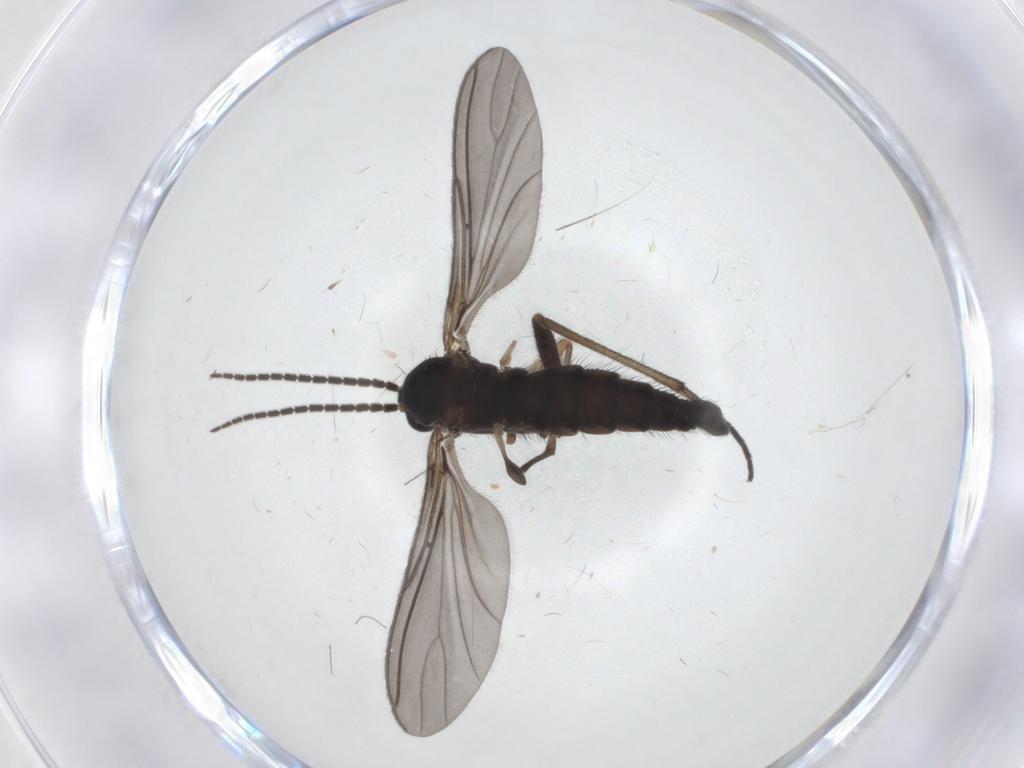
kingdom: Animalia
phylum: Arthropoda
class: Insecta
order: Diptera
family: Sciaridae
